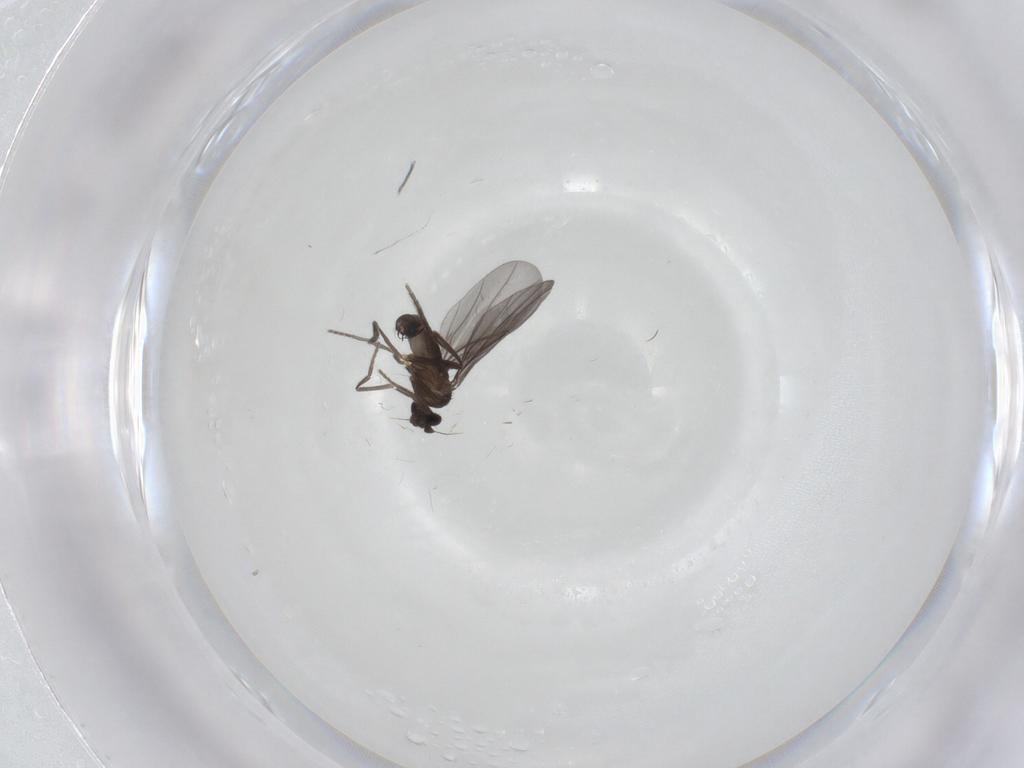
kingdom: Animalia
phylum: Arthropoda
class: Insecta
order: Diptera
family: Phoridae
